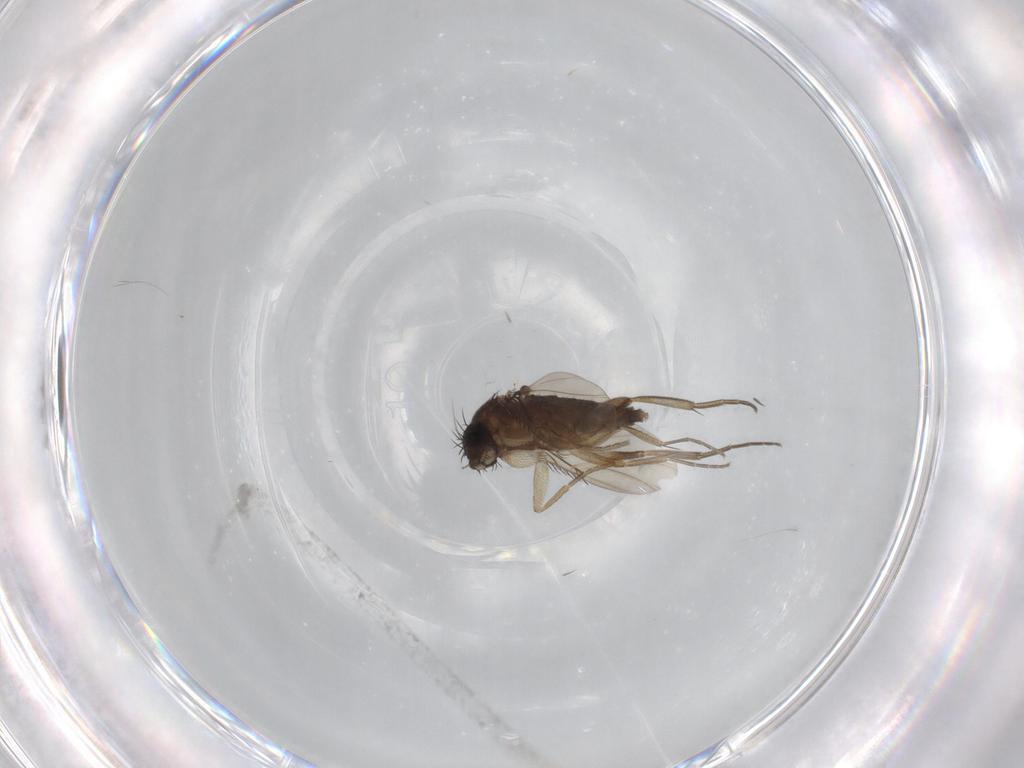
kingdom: Animalia
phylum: Arthropoda
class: Insecta
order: Diptera
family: Phoridae
